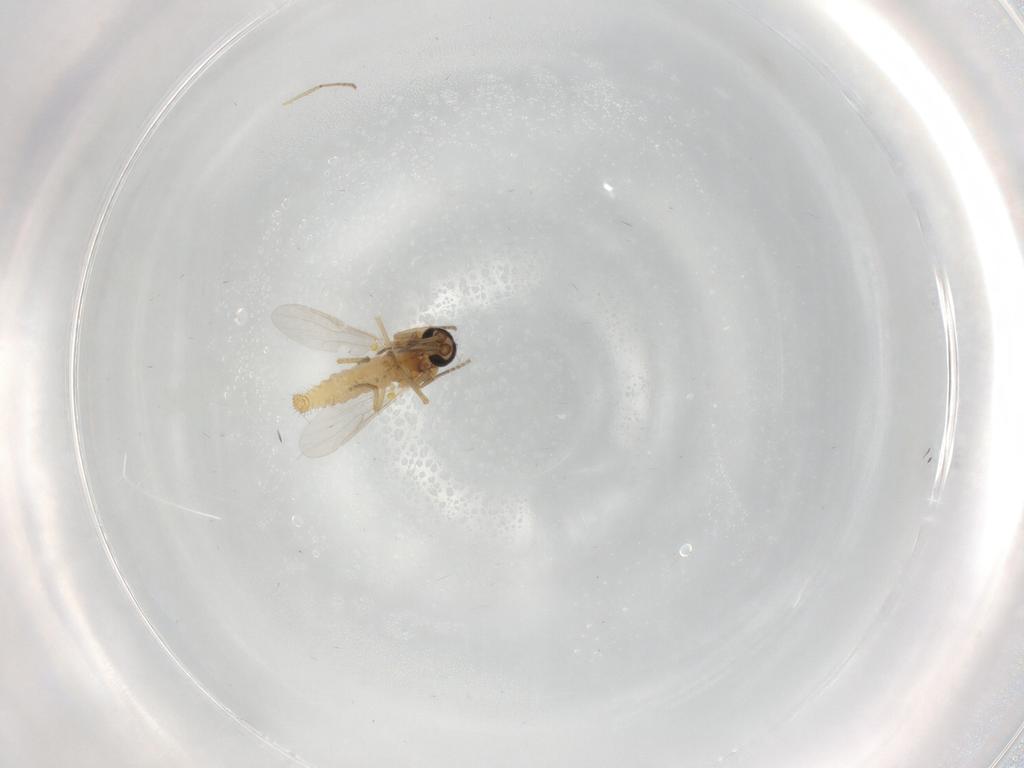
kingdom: Animalia
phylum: Arthropoda
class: Insecta
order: Diptera
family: Ceratopogonidae
